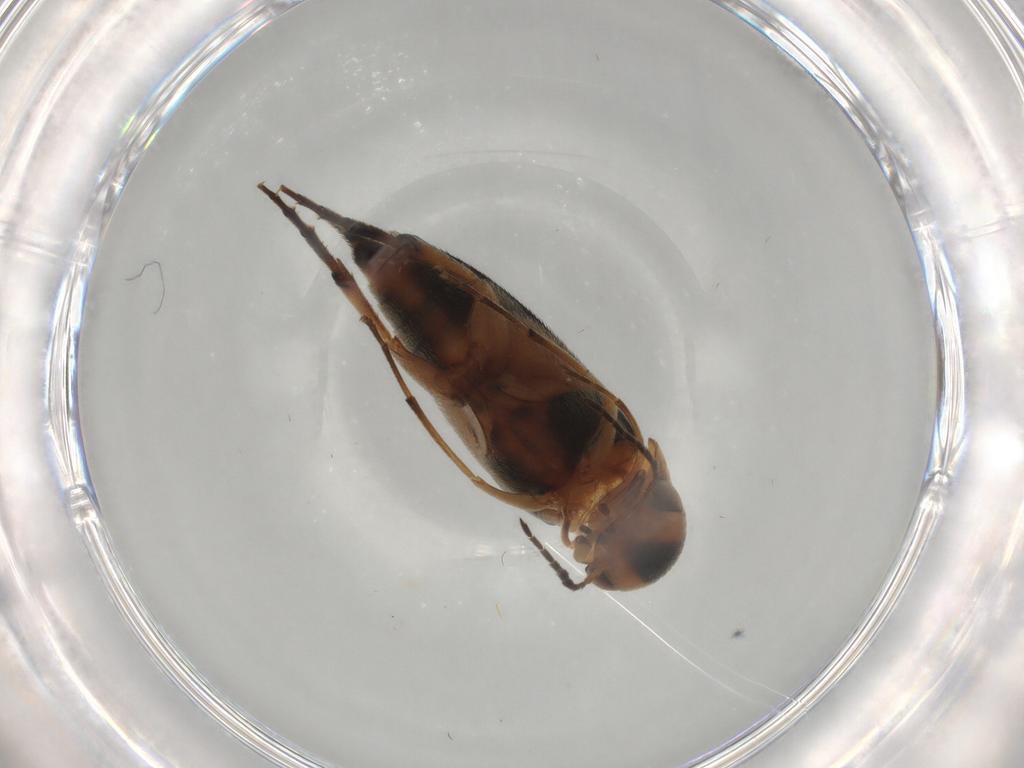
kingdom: Animalia
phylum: Arthropoda
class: Insecta
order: Coleoptera
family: Mordellidae
